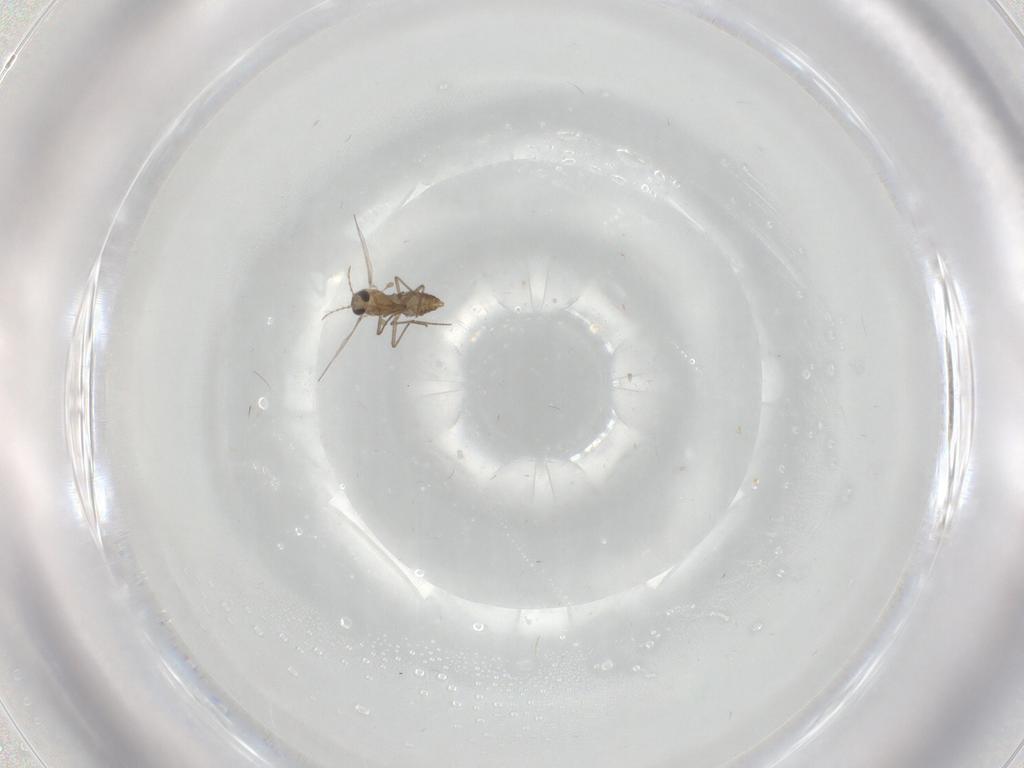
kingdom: Animalia
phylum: Arthropoda
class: Insecta
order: Diptera
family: Chironomidae
